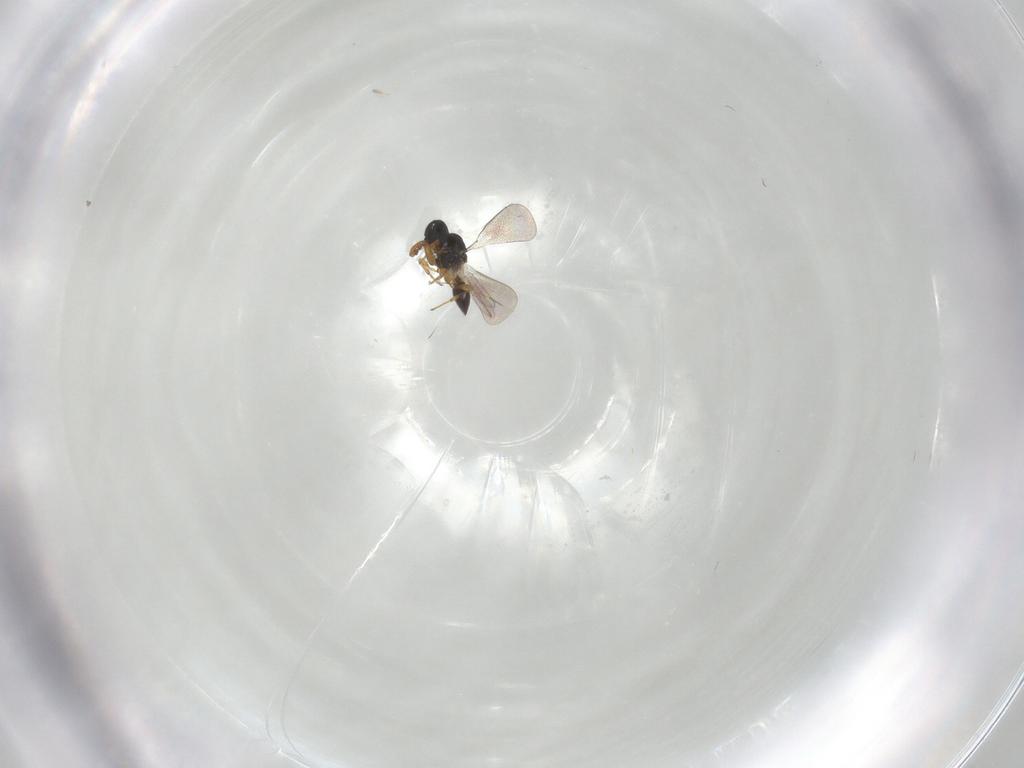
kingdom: Animalia
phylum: Arthropoda
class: Insecta
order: Hymenoptera
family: Platygastridae
